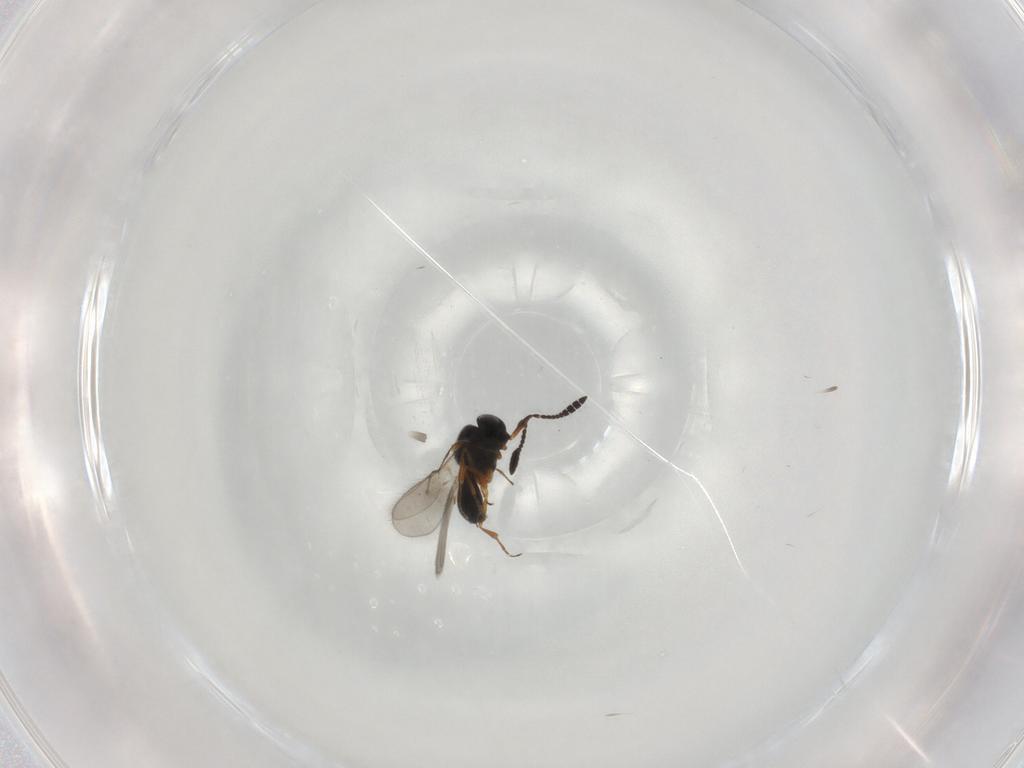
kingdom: Animalia
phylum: Arthropoda
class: Insecta
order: Hymenoptera
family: Scelionidae
